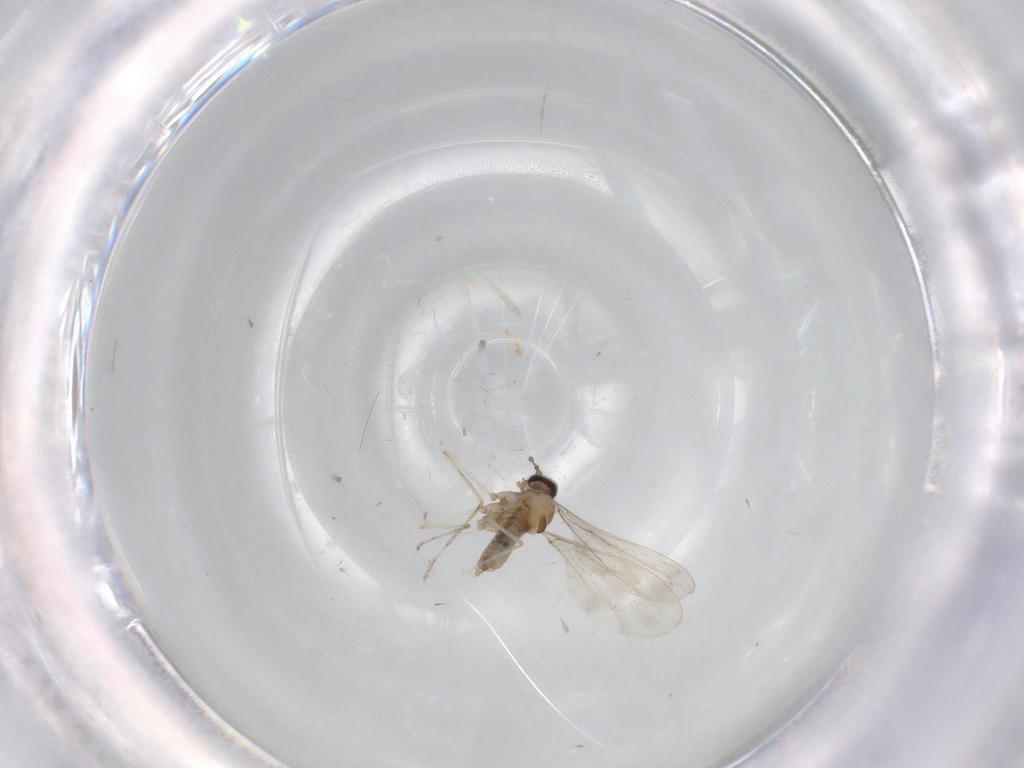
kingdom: Animalia
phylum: Arthropoda
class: Insecta
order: Diptera
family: Cecidomyiidae
